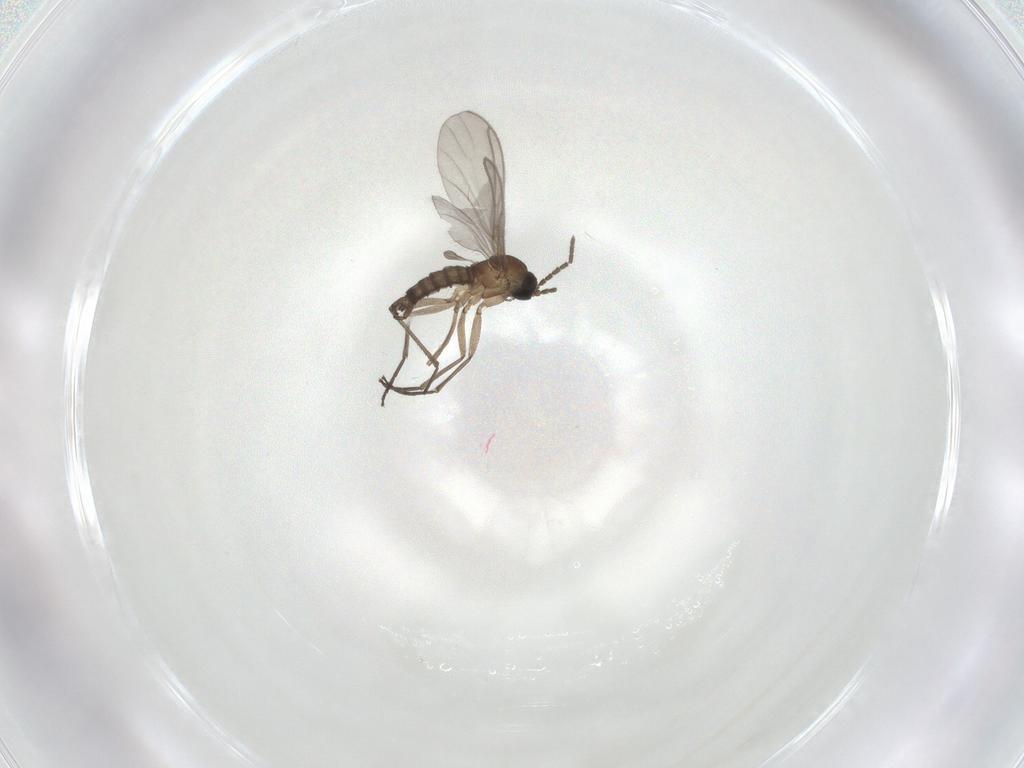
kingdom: Animalia
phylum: Arthropoda
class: Insecta
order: Diptera
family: Sciaridae
